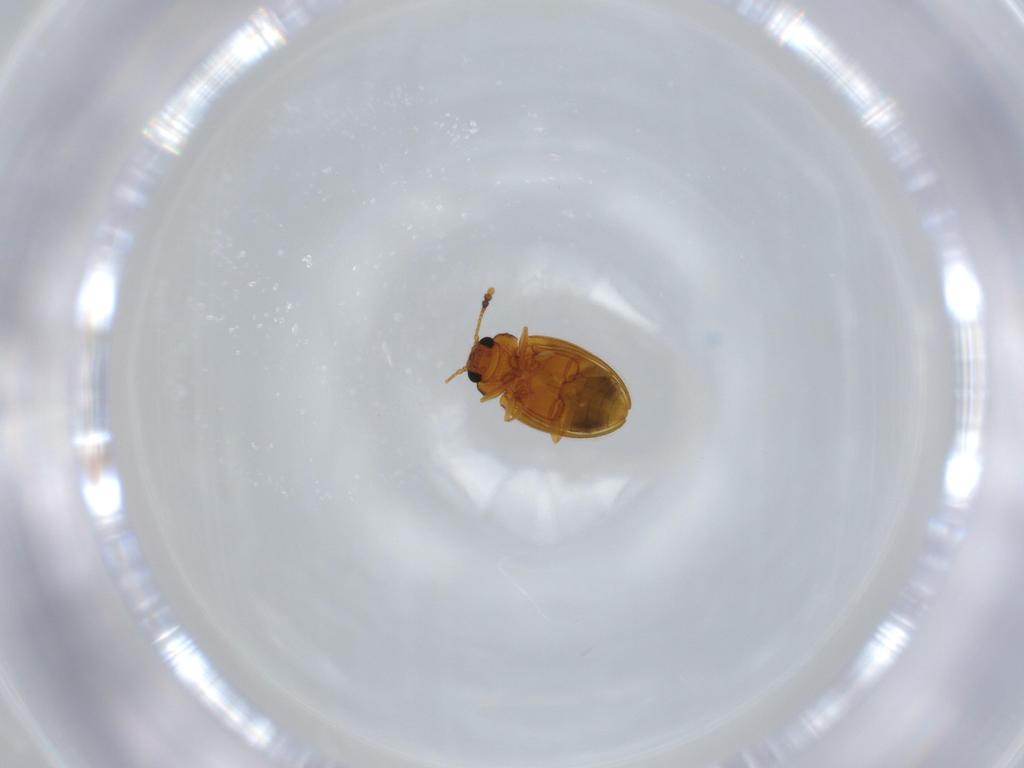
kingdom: Animalia
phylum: Arthropoda
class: Insecta
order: Coleoptera
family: Erotylidae
